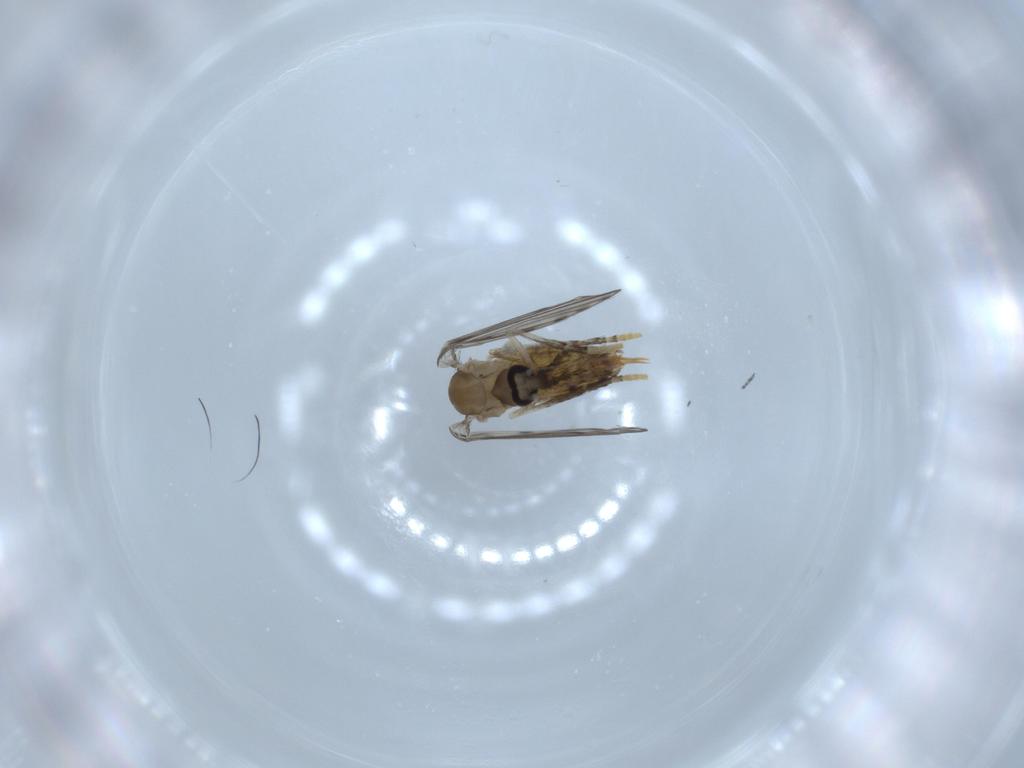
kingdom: Animalia
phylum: Arthropoda
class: Insecta
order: Diptera
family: Psychodidae
